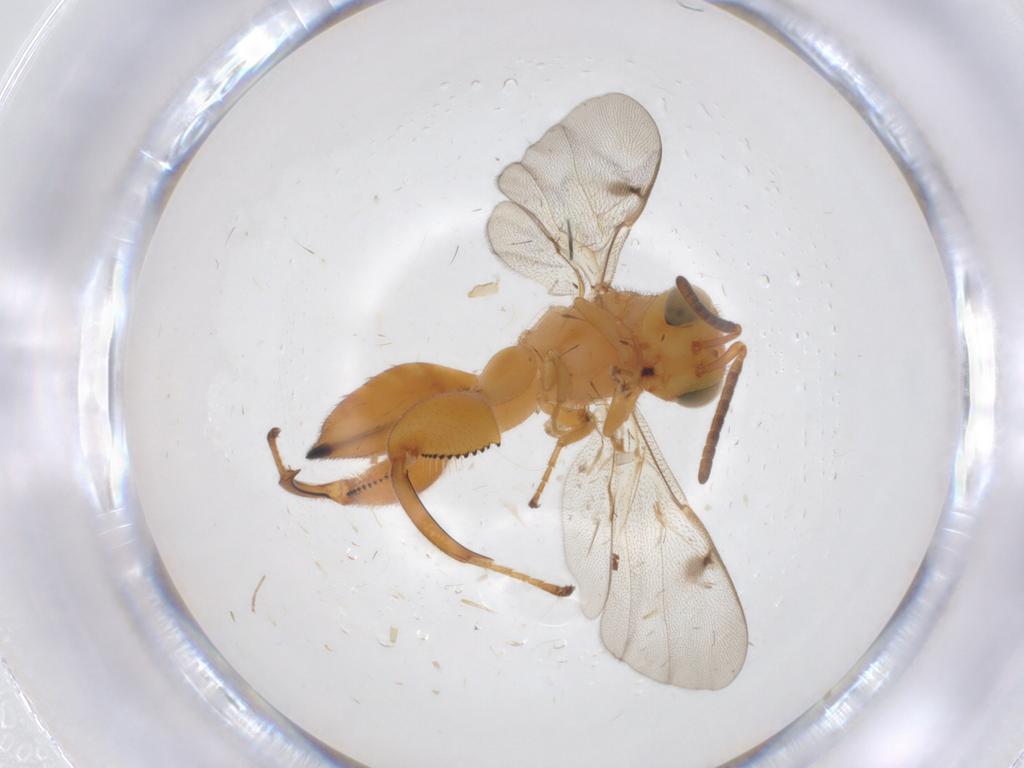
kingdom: Animalia
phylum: Arthropoda
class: Insecta
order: Hymenoptera
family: Chalcididae
